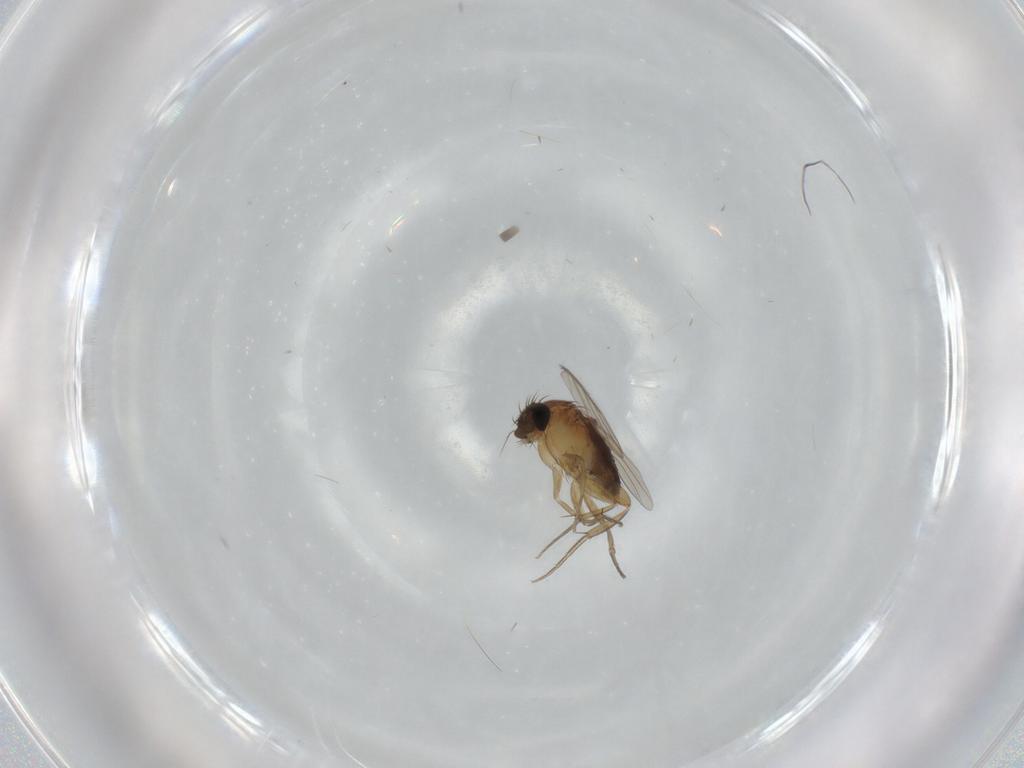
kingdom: Animalia
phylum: Arthropoda
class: Insecta
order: Diptera
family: Phoridae
